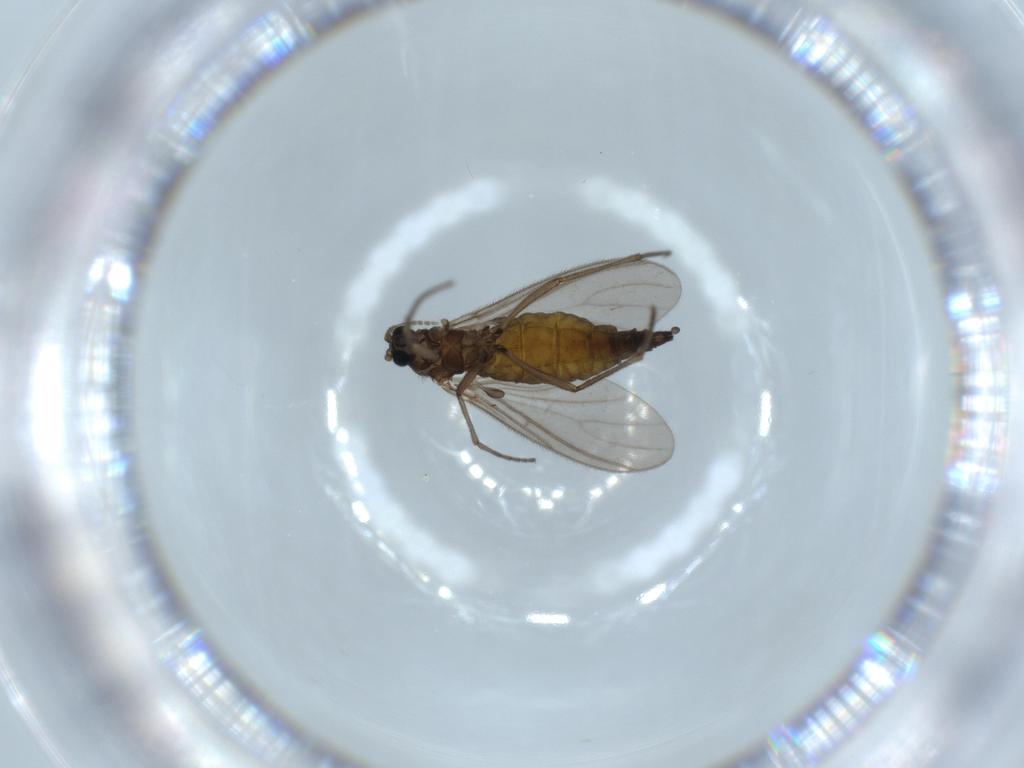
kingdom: Animalia
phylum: Arthropoda
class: Insecta
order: Diptera
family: Sciaridae
